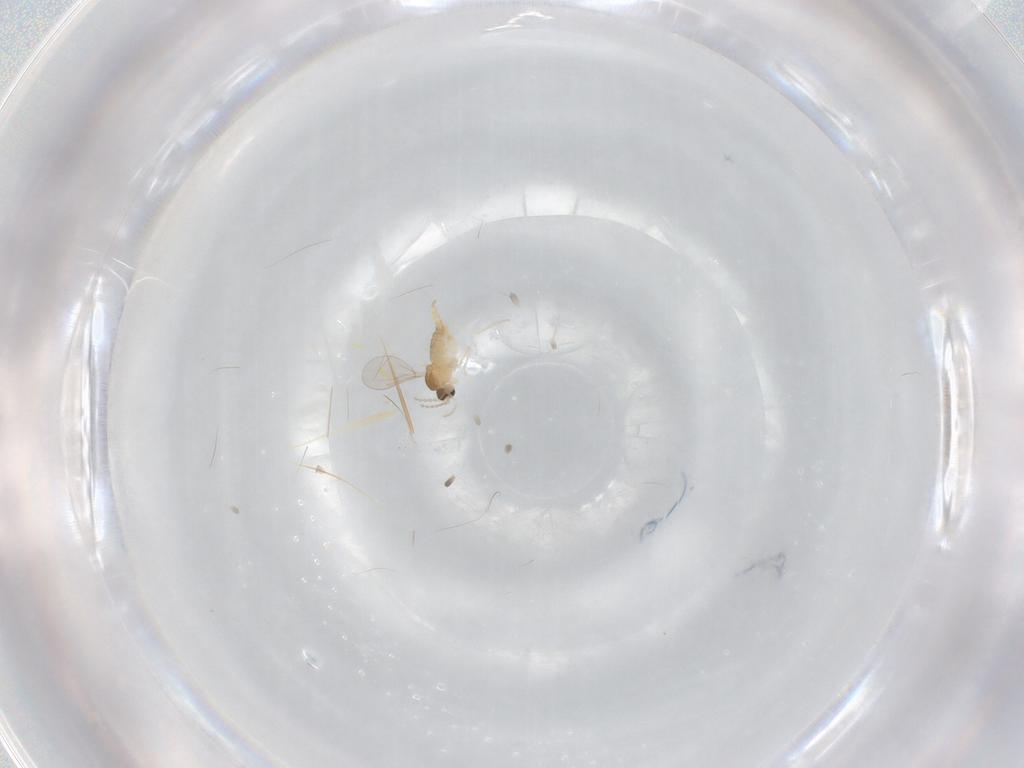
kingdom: Animalia
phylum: Arthropoda
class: Insecta
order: Diptera
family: Cecidomyiidae
